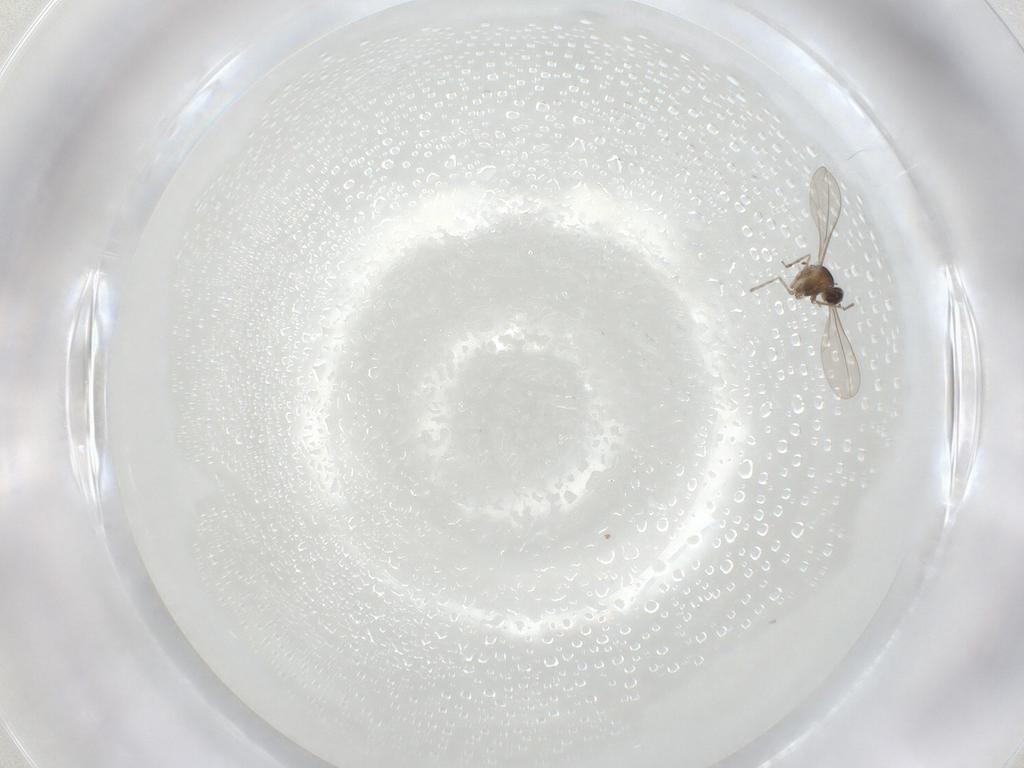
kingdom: Animalia
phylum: Arthropoda
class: Insecta
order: Diptera
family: Cecidomyiidae
